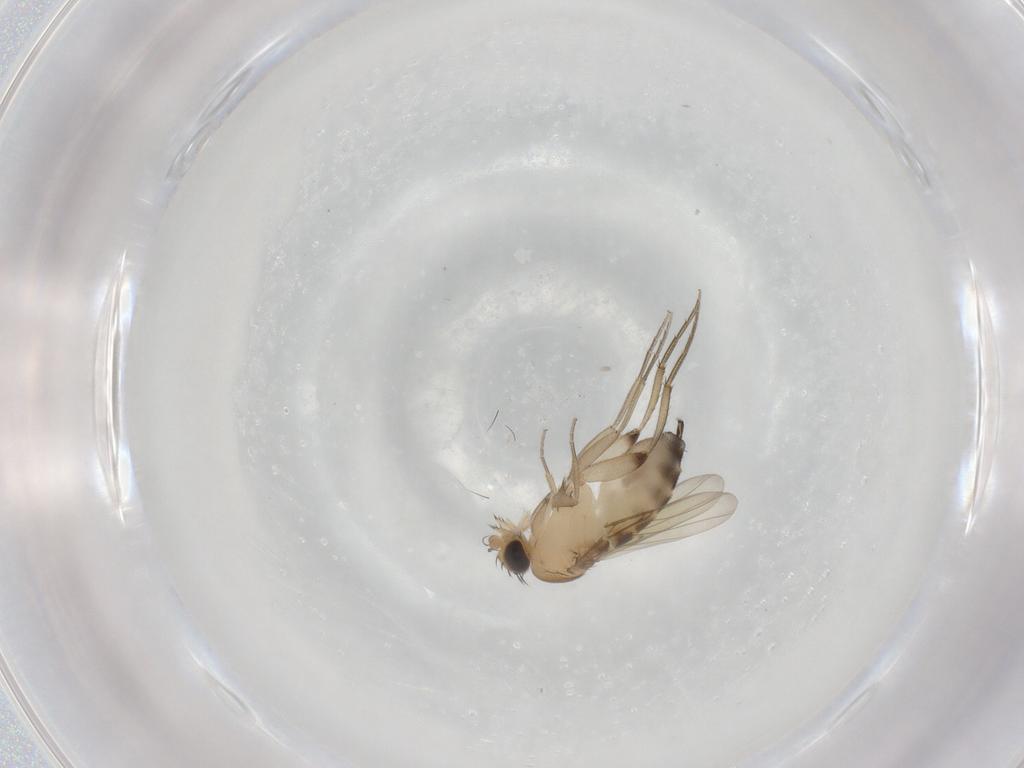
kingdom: Animalia
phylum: Arthropoda
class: Insecta
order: Diptera
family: Phoridae
